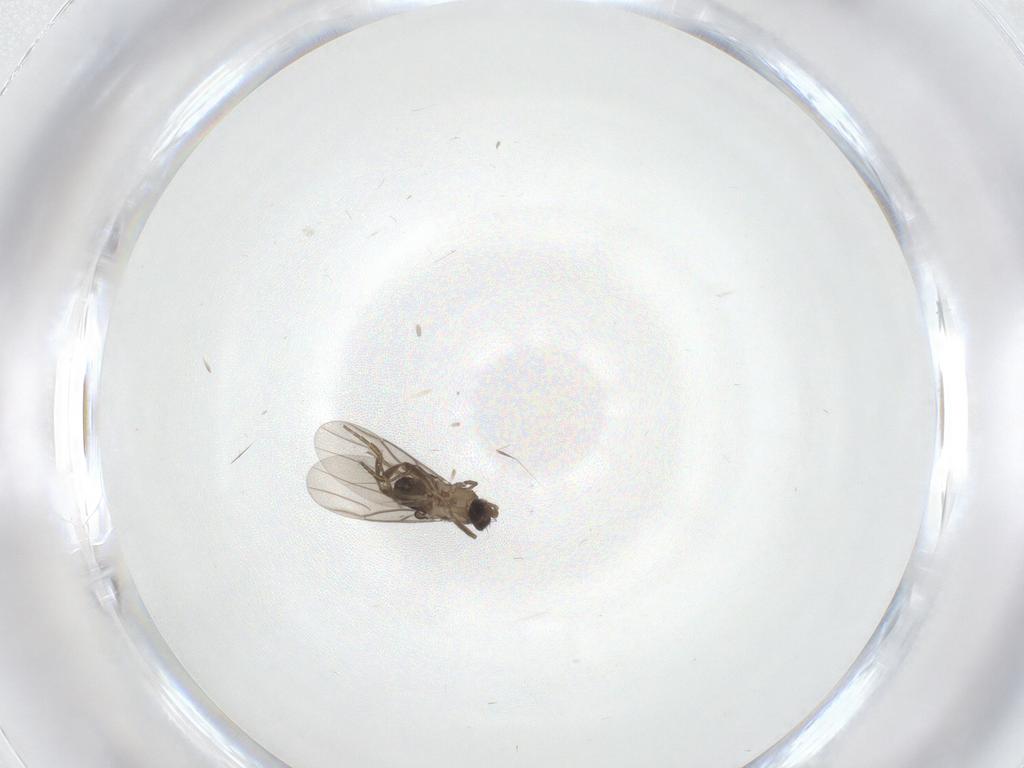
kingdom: Animalia
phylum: Arthropoda
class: Insecta
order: Diptera
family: Phoridae
